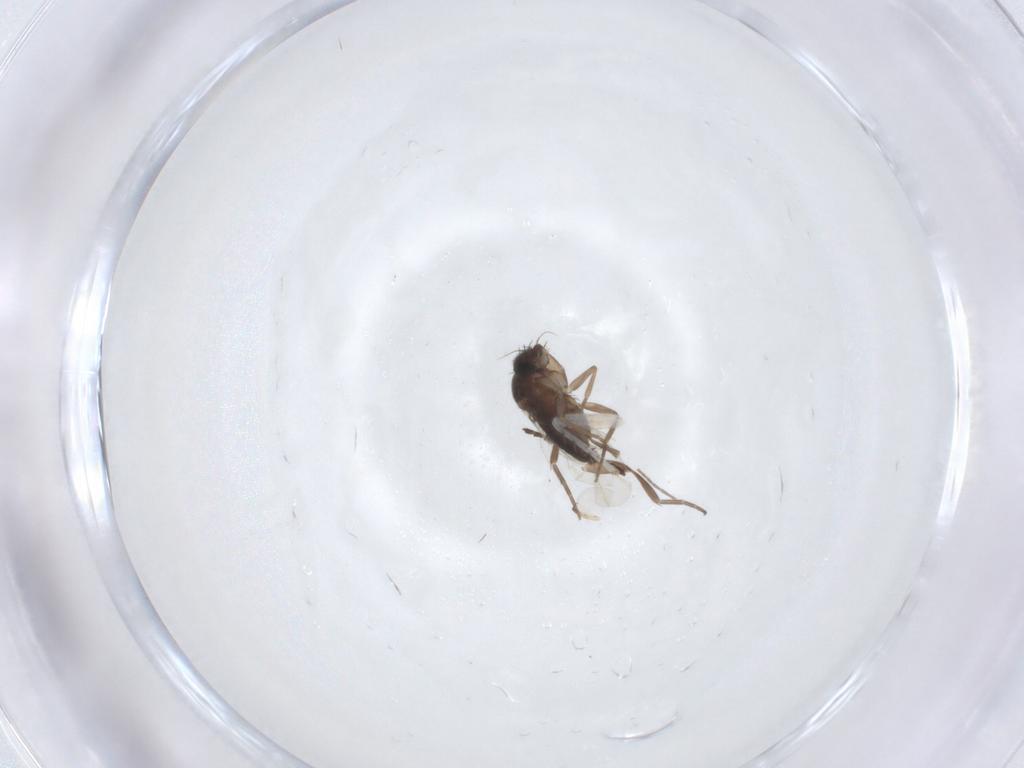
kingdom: Animalia
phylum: Arthropoda
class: Insecta
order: Diptera
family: Phoridae
